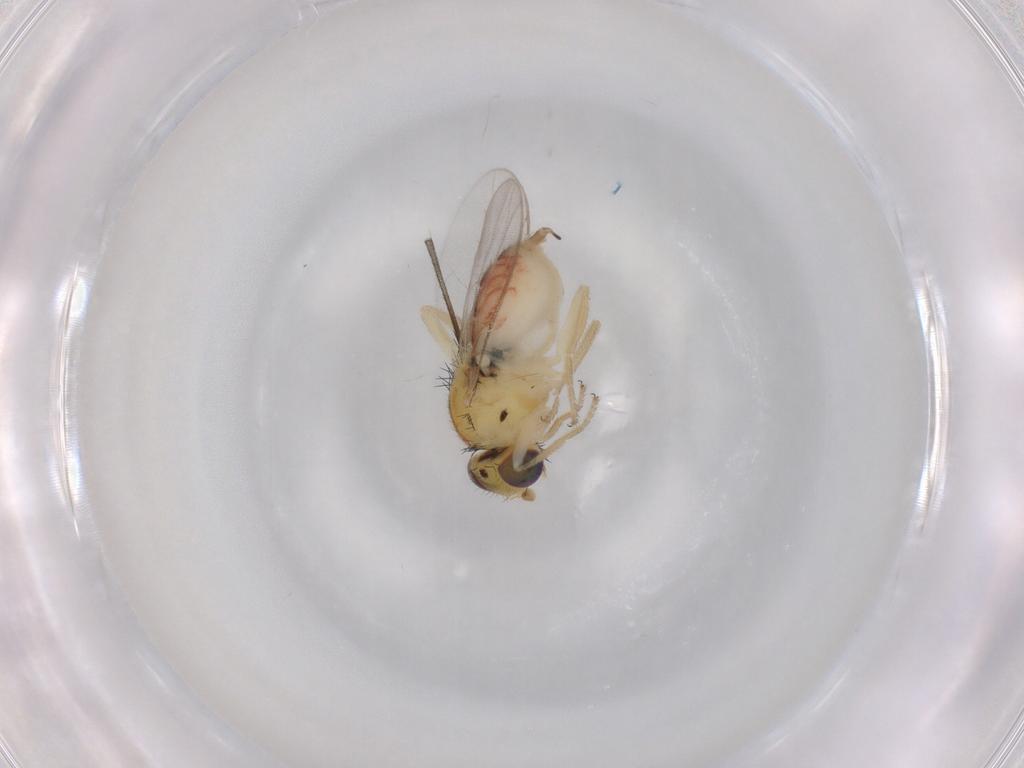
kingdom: Animalia
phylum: Arthropoda
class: Insecta
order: Diptera
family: Chloropidae
